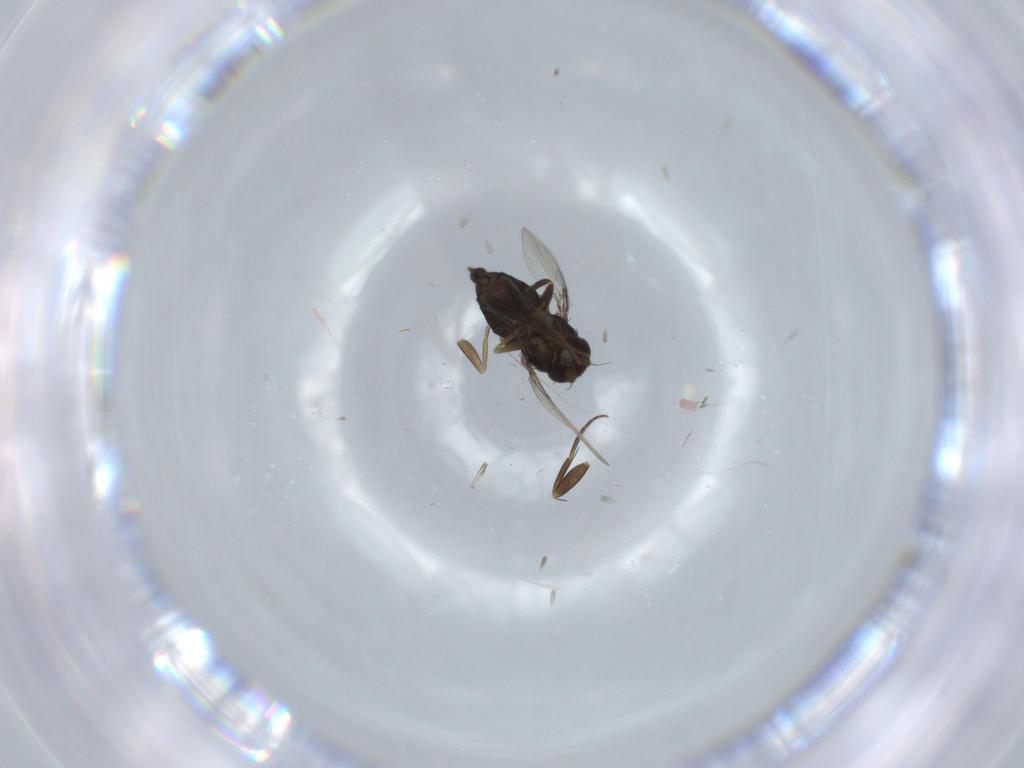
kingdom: Animalia
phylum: Arthropoda
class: Insecta
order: Diptera
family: Phoridae
